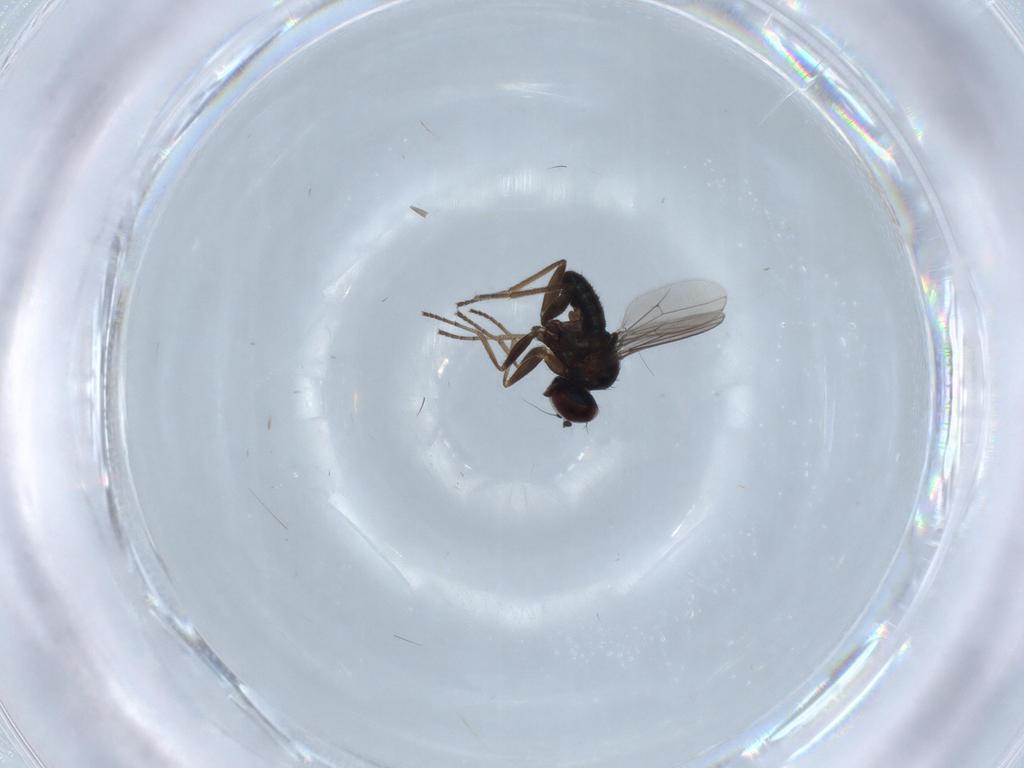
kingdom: Animalia
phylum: Arthropoda
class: Insecta
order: Diptera
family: Dolichopodidae
